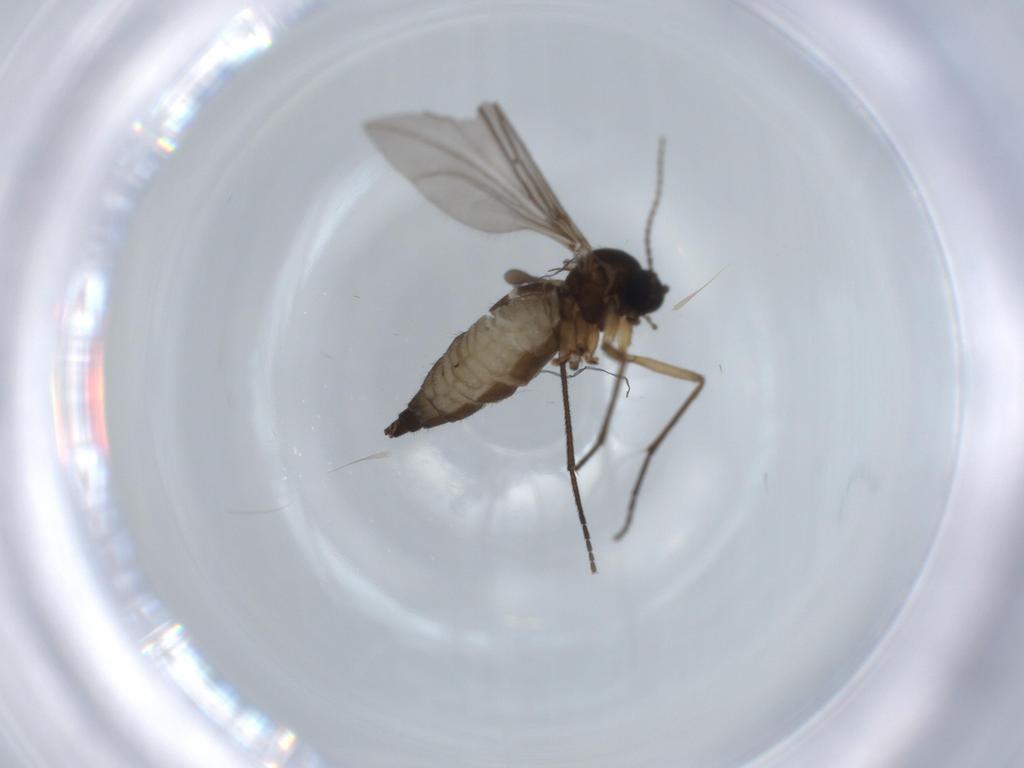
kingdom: Animalia
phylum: Arthropoda
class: Insecta
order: Diptera
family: Sciaridae
